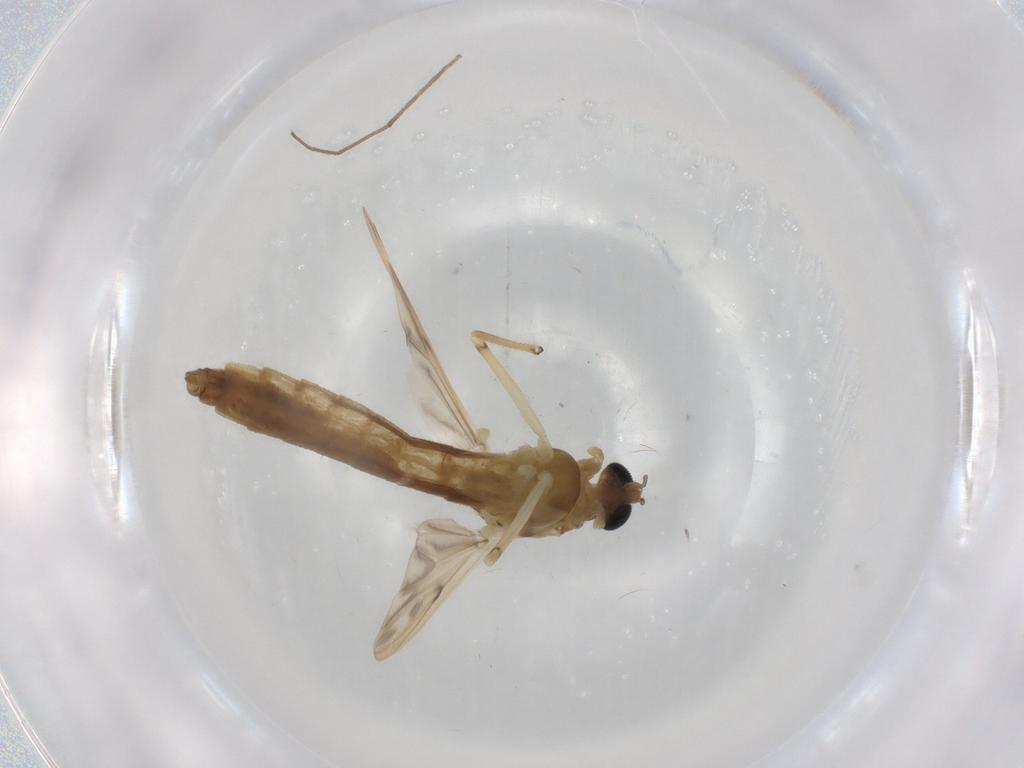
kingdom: Animalia
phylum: Arthropoda
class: Insecta
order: Diptera
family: Chironomidae
